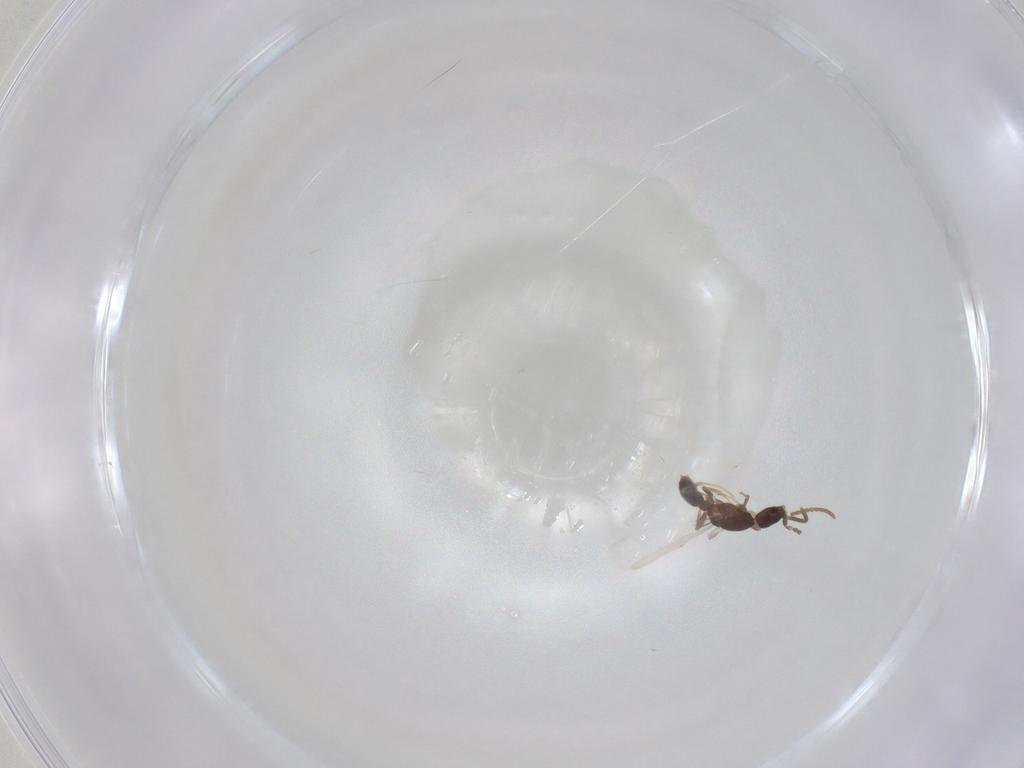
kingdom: Animalia
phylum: Arthropoda
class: Insecta
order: Hymenoptera
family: Formicidae
